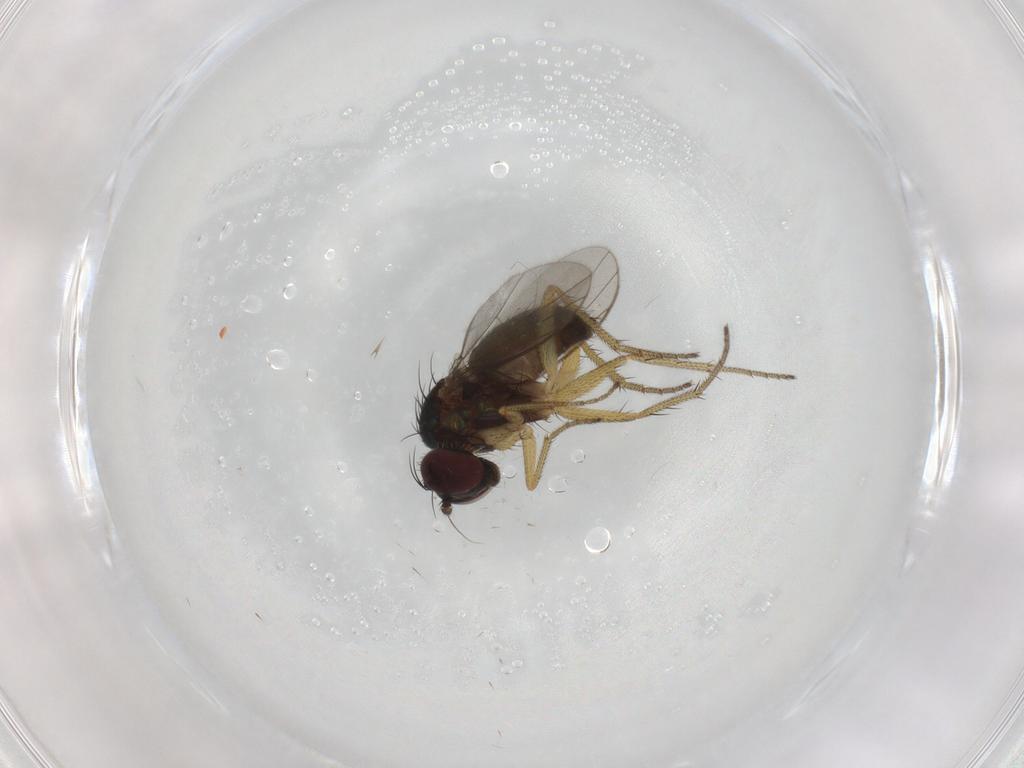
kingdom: Animalia
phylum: Arthropoda
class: Insecta
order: Diptera
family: Dolichopodidae
